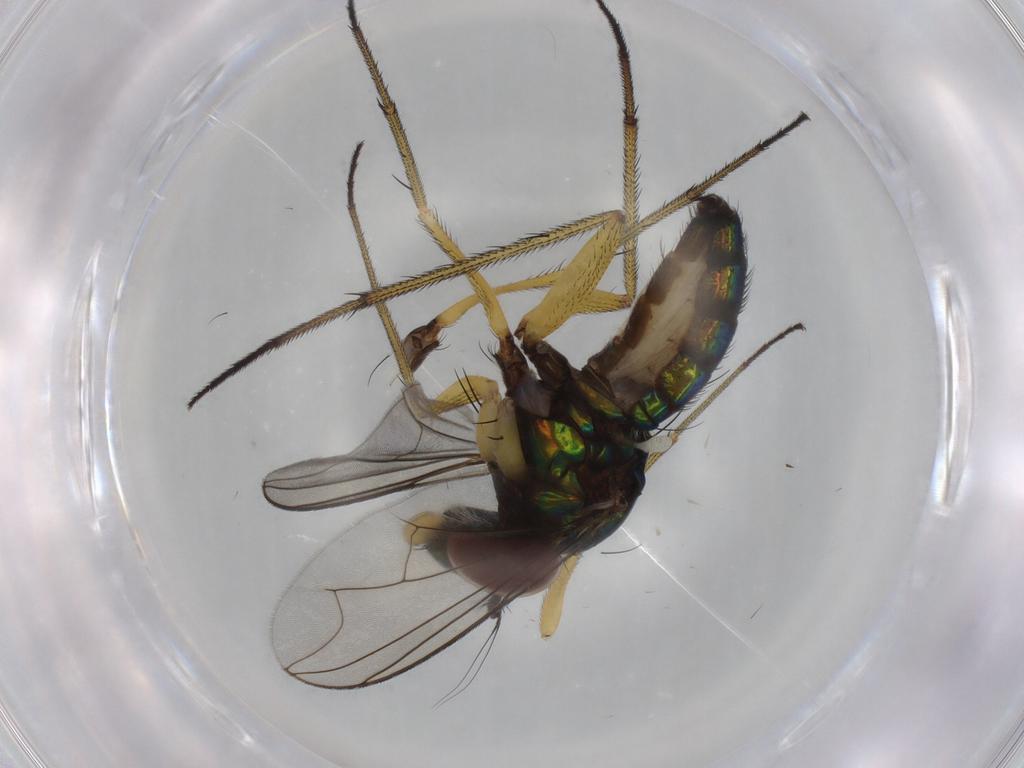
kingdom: Animalia
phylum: Arthropoda
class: Insecta
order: Diptera
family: Dolichopodidae
